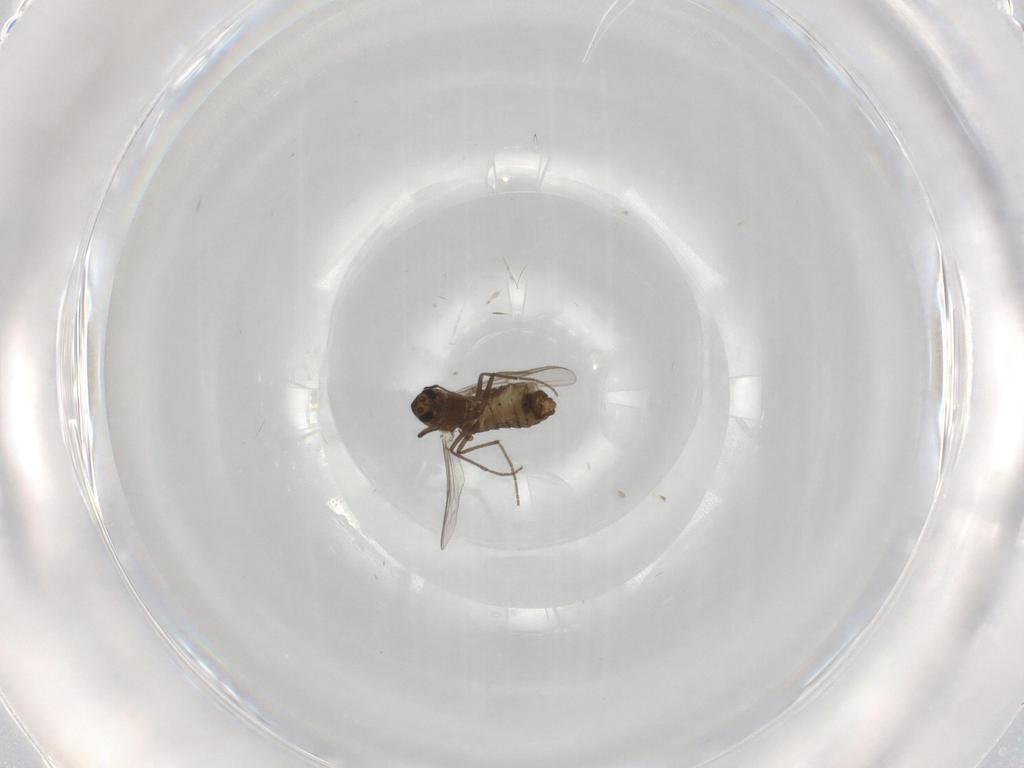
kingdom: Animalia
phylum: Arthropoda
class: Insecta
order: Diptera
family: Chironomidae
